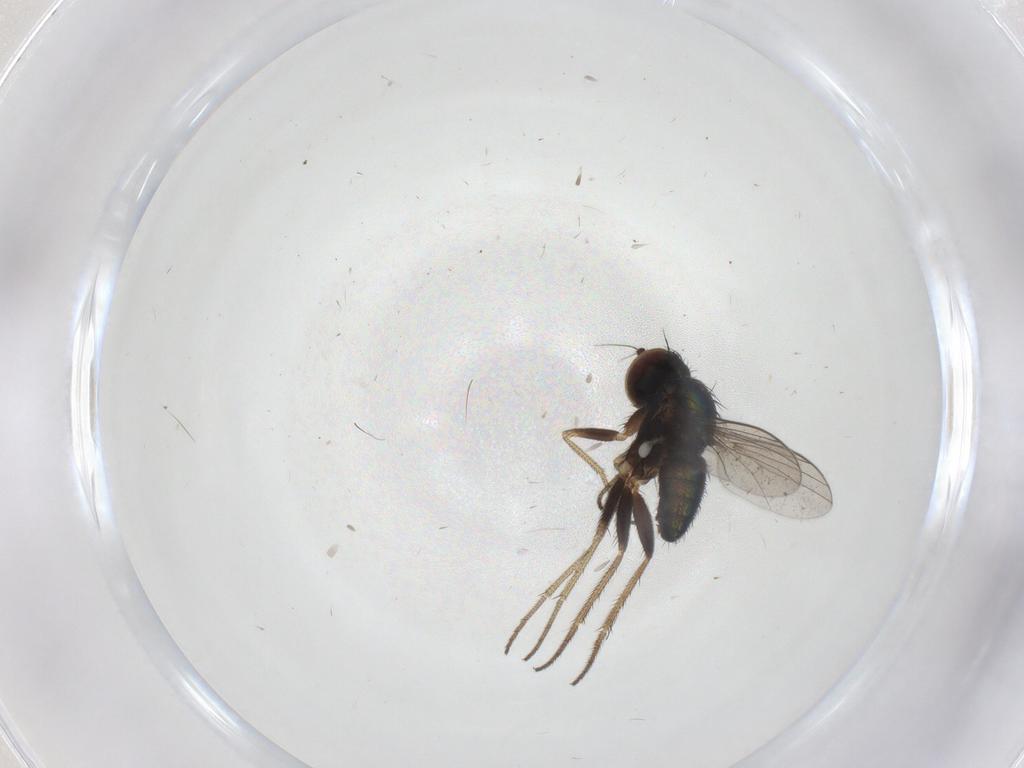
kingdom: Animalia
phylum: Arthropoda
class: Insecta
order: Diptera
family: Dolichopodidae
